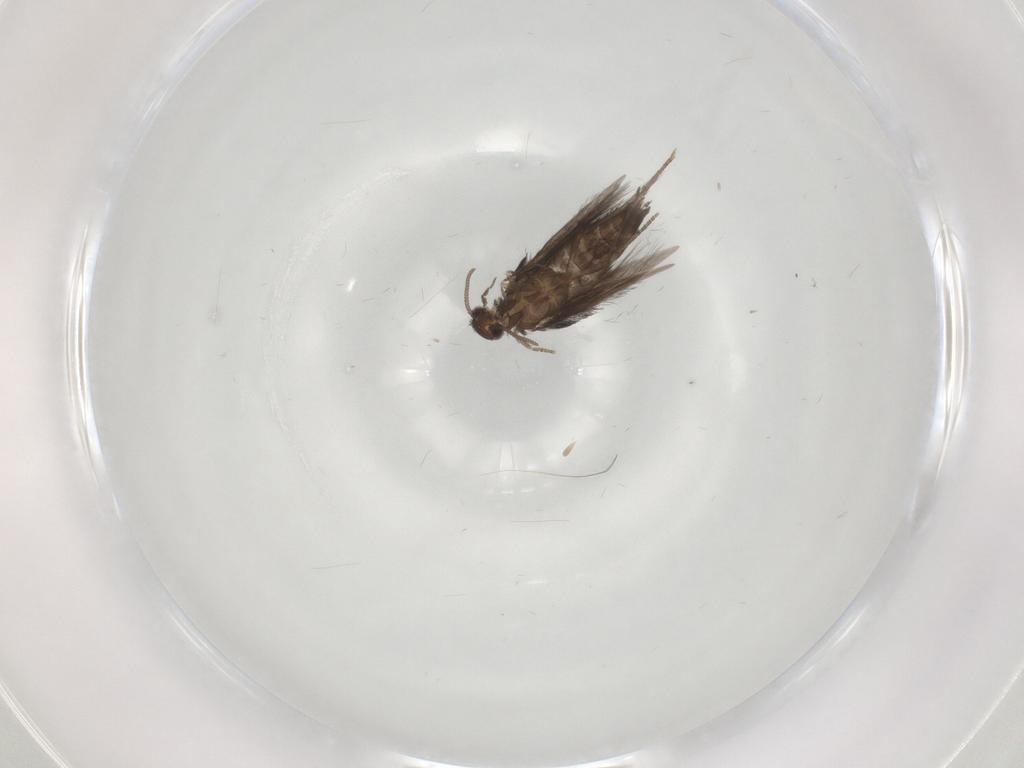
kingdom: Animalia
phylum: Arthropoda
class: Insecta
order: Trichoptera
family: Hydroptilidae
